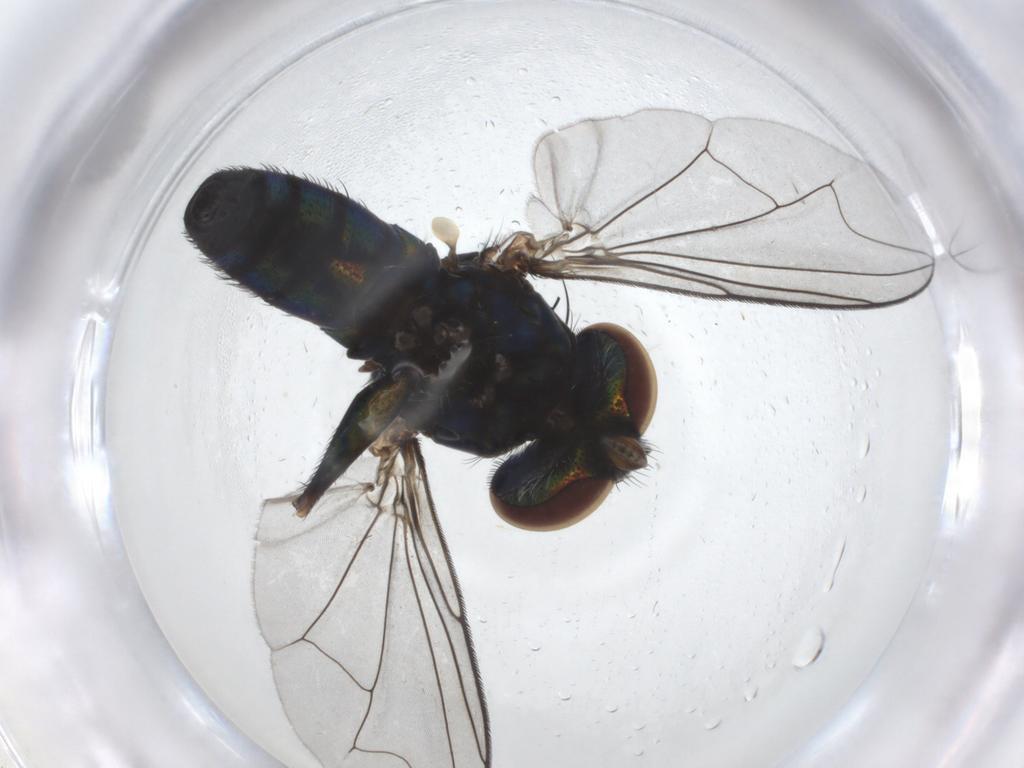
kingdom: Animalia
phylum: Arthropoda
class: Insecta
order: Diptera
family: Dolichopodidae
